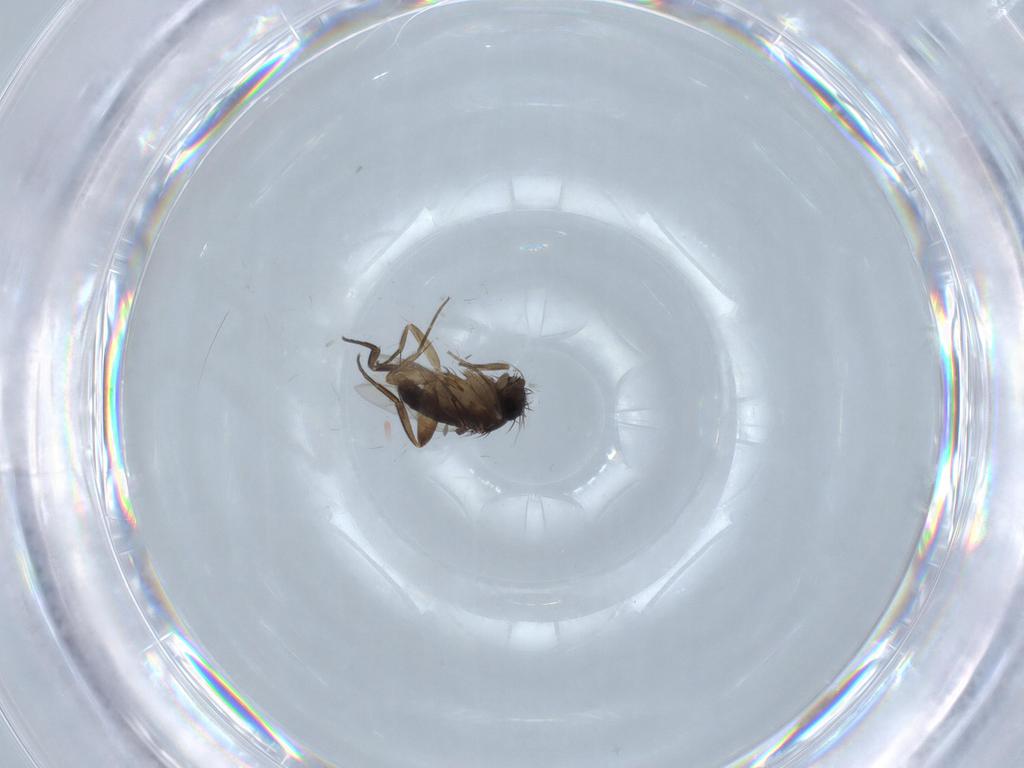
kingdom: Animalia
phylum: Arthropoda
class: Insecta
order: Diptera
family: Phoridae
